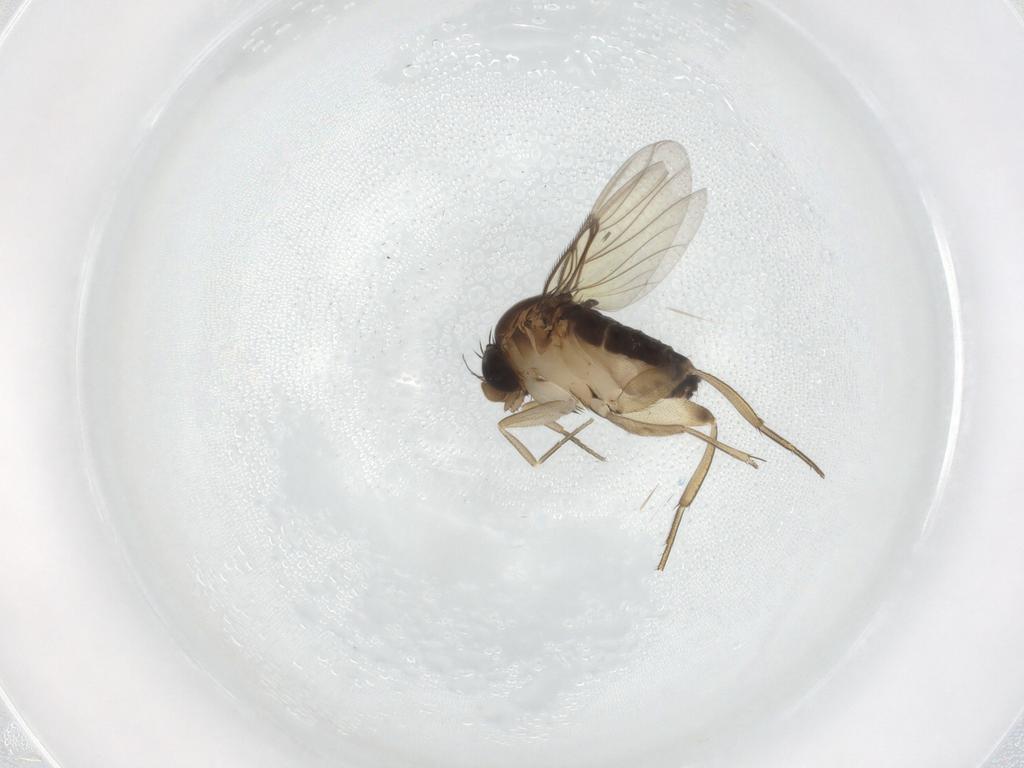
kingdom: Animalia
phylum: Arthropoda
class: Insecta
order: Diptera
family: Phoridae
